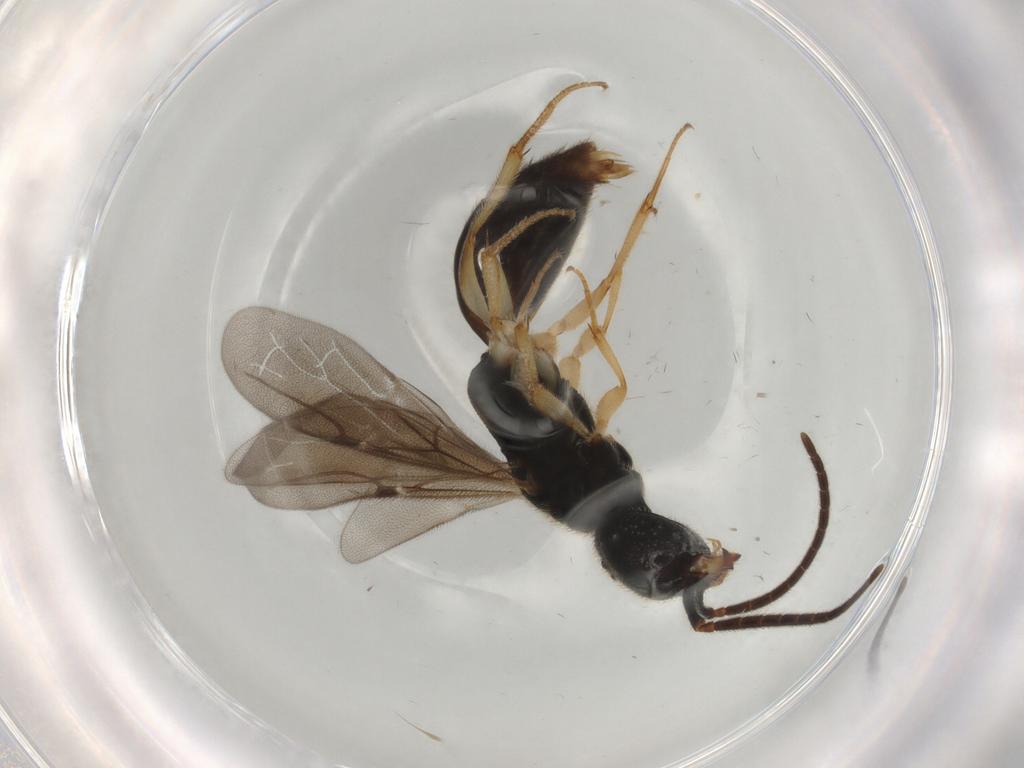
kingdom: Animalia
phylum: Arthropoda
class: Insecta
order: Hymenoptera
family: Bethylidae
